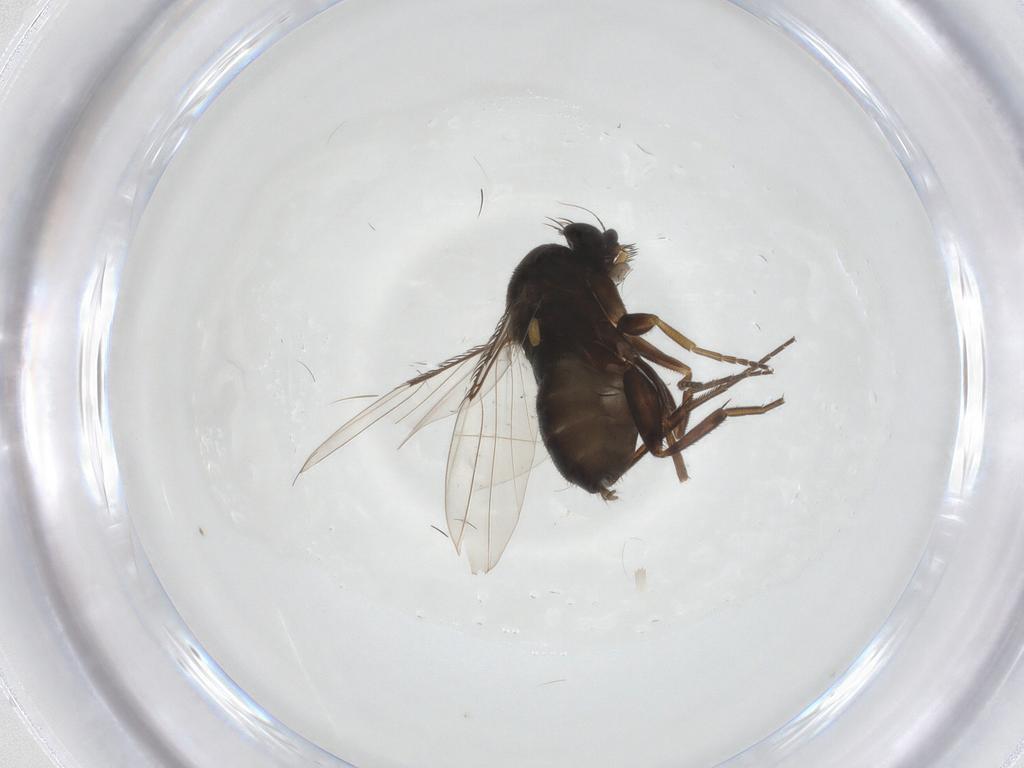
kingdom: Animalia
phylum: Arthropoda
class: Insecta
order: Diptera
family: Phoridae
